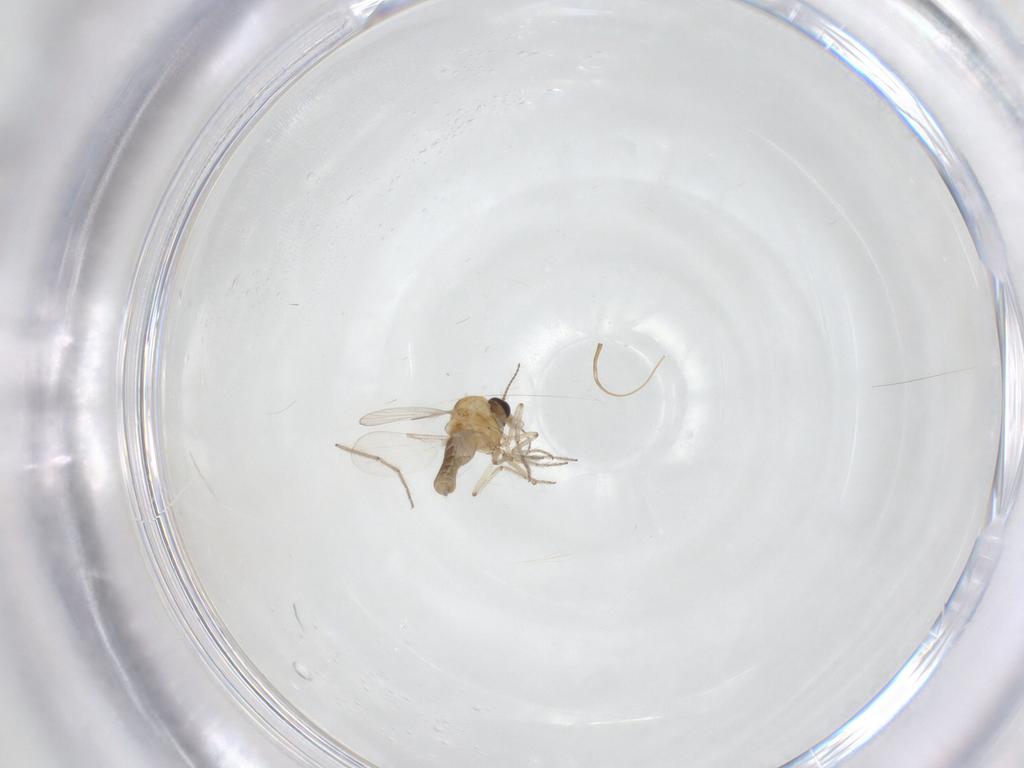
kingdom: Animalia
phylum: Arthropoda
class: Insecta
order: Diptera
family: Ceratopogonidae
